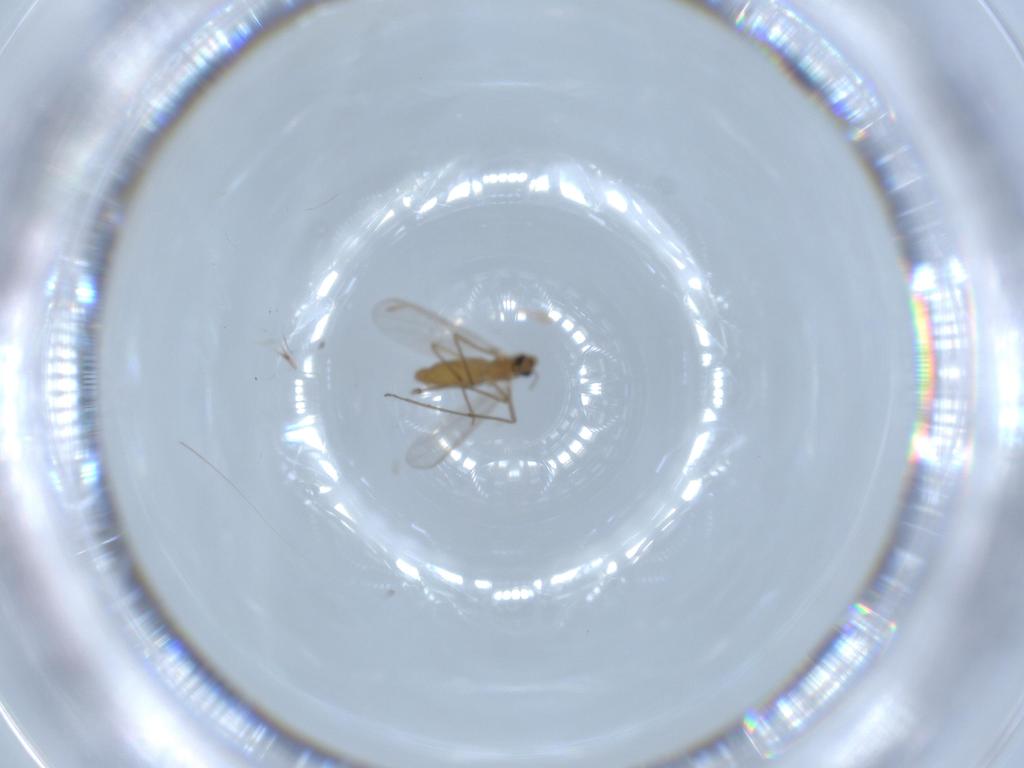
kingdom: Animalia
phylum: Arthropoda
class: Insecta
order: Diptera
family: Chironomidae
